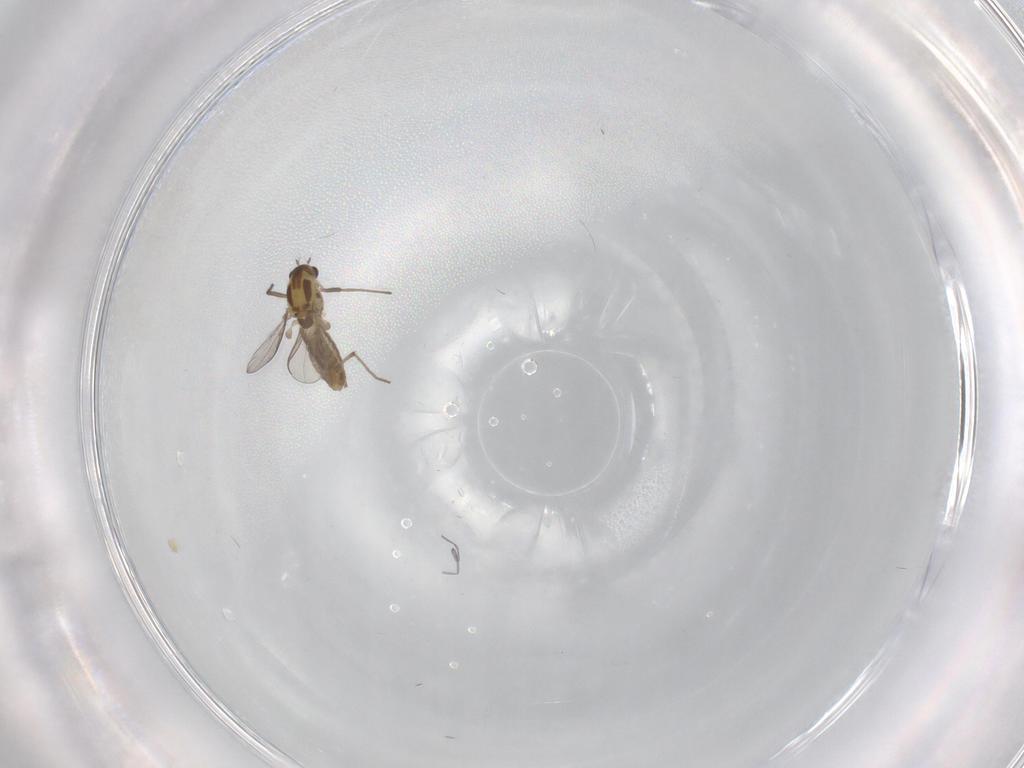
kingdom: Animalia
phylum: Arthropoda
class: Insecta
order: Diptera
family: Chironomidae
